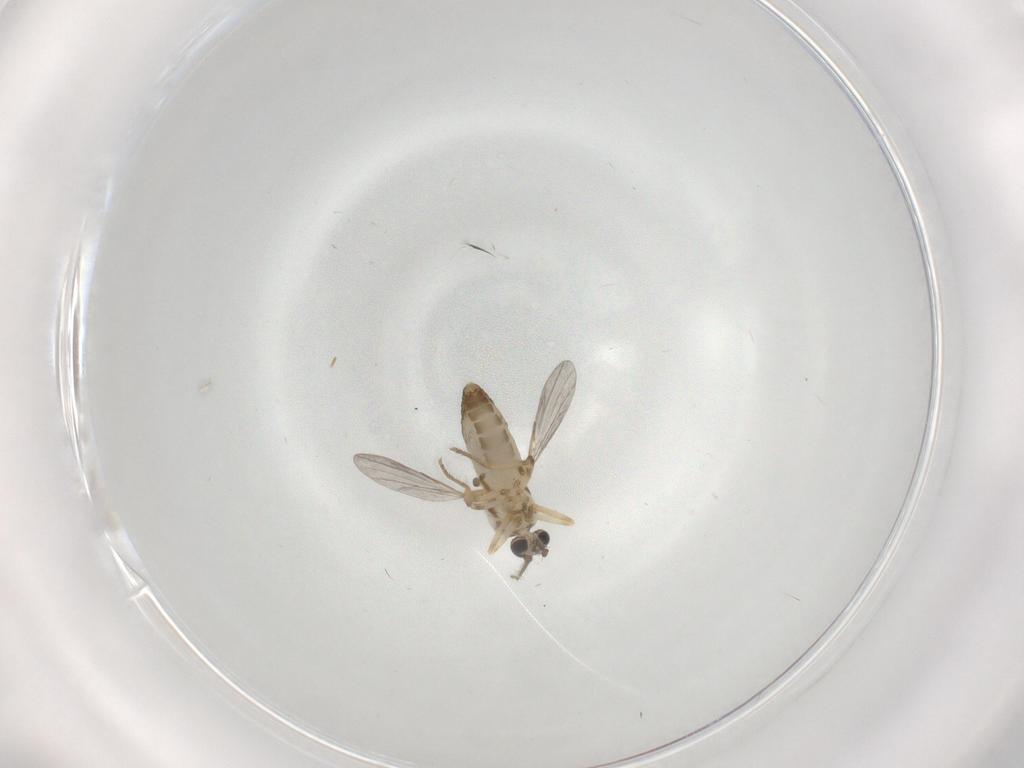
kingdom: Animalia
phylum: Arthropoda
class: Insecta
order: Diptera
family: Ceratopogonidae
